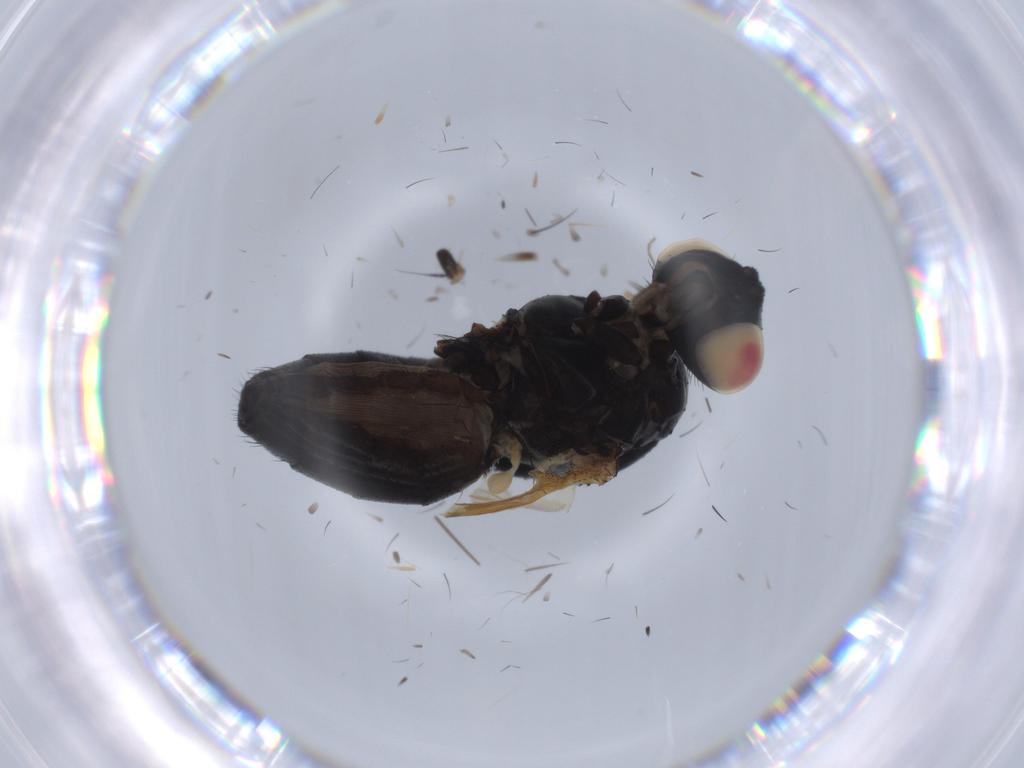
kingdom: Animalia
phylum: Arthropoda
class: Insecta
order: Diptera
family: Fannia
